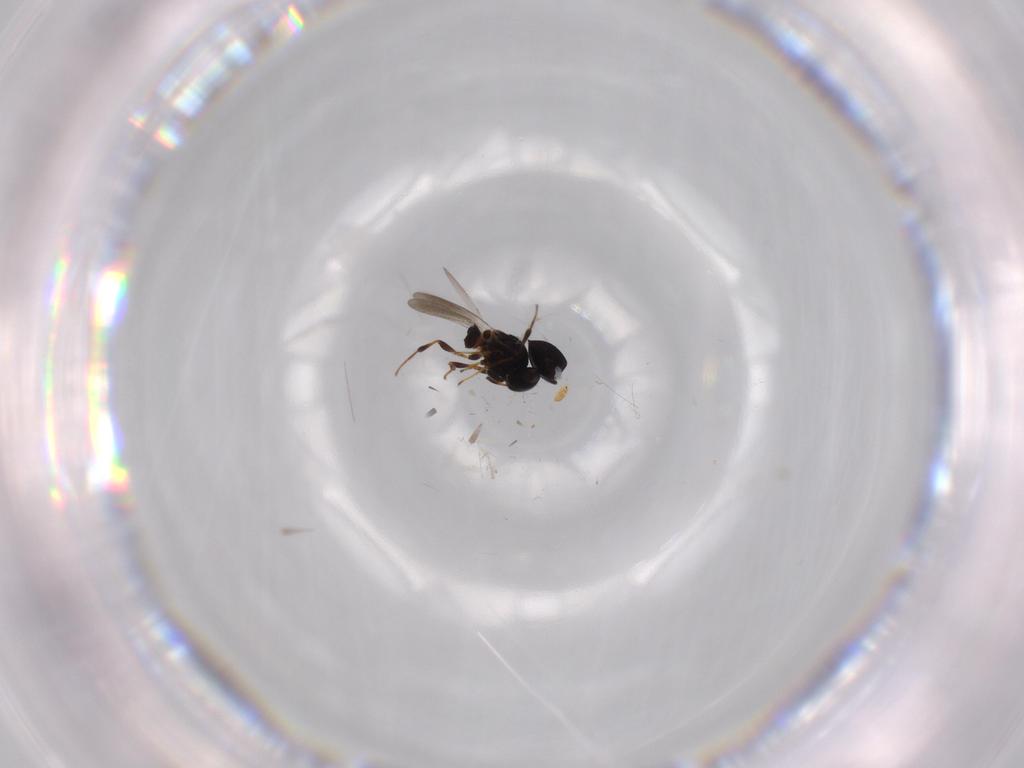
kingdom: Animalia
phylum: Arthropoda
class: Insecta
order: Hymenoptera
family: Platygastridae
